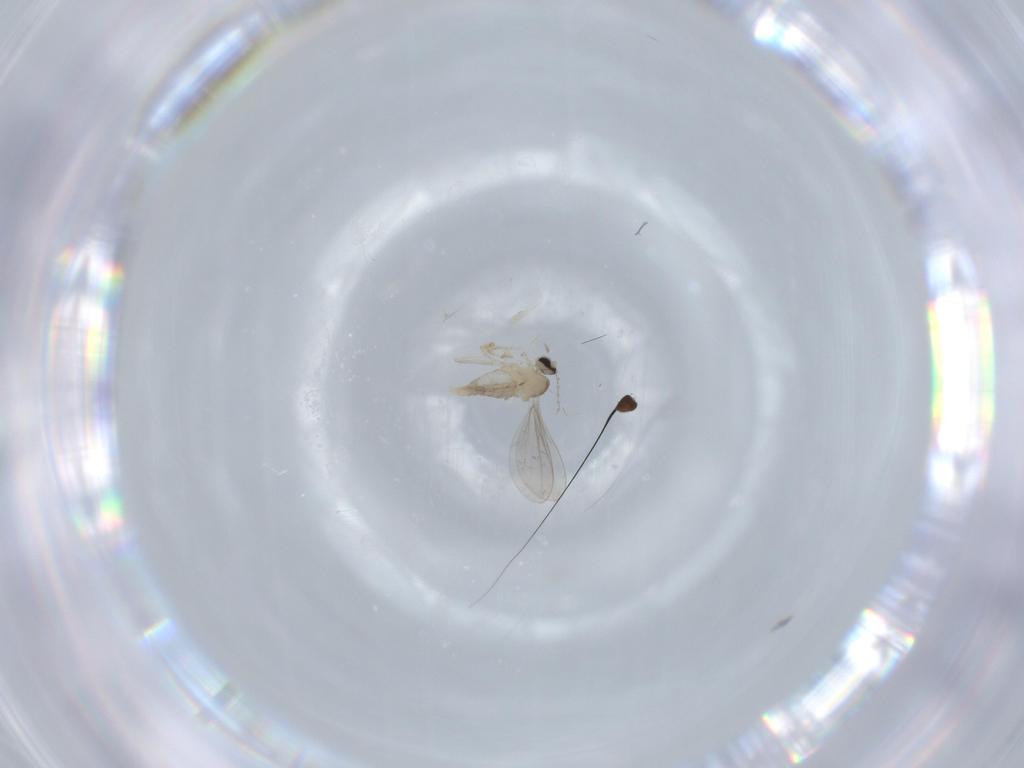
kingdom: Animalia
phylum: Arthropoda
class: Insecta
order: Diptera
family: Cecidomyiidae
